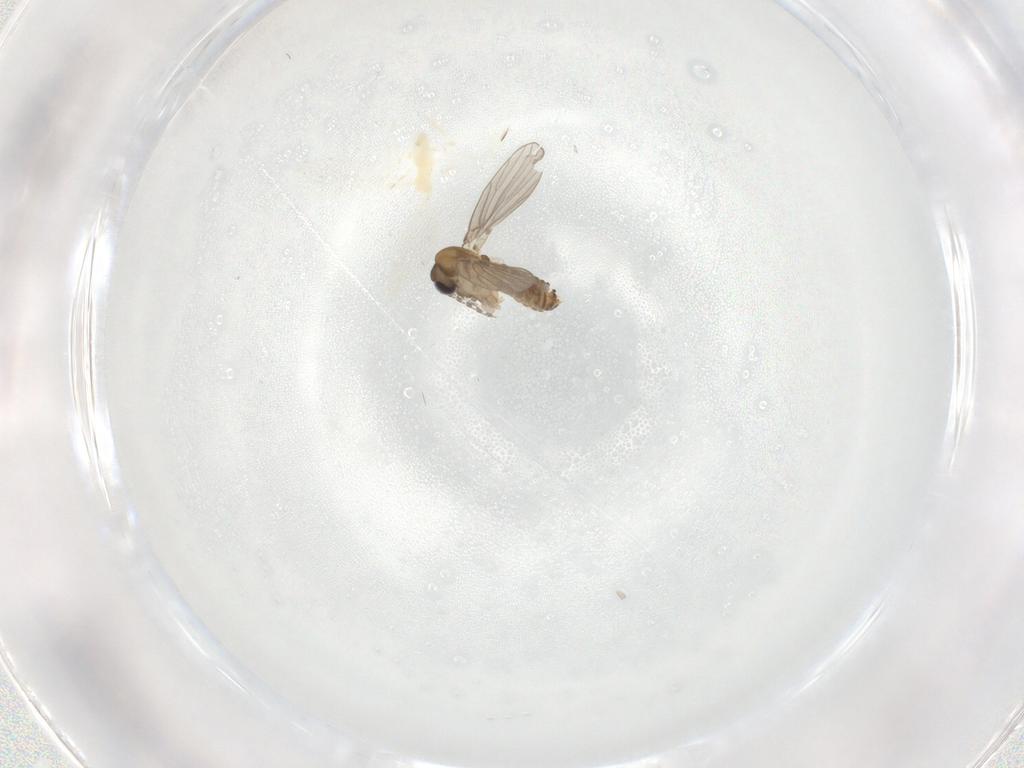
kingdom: Animalia
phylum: Arthropoda
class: Insecta
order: Diptera
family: Cecidomyiidae
